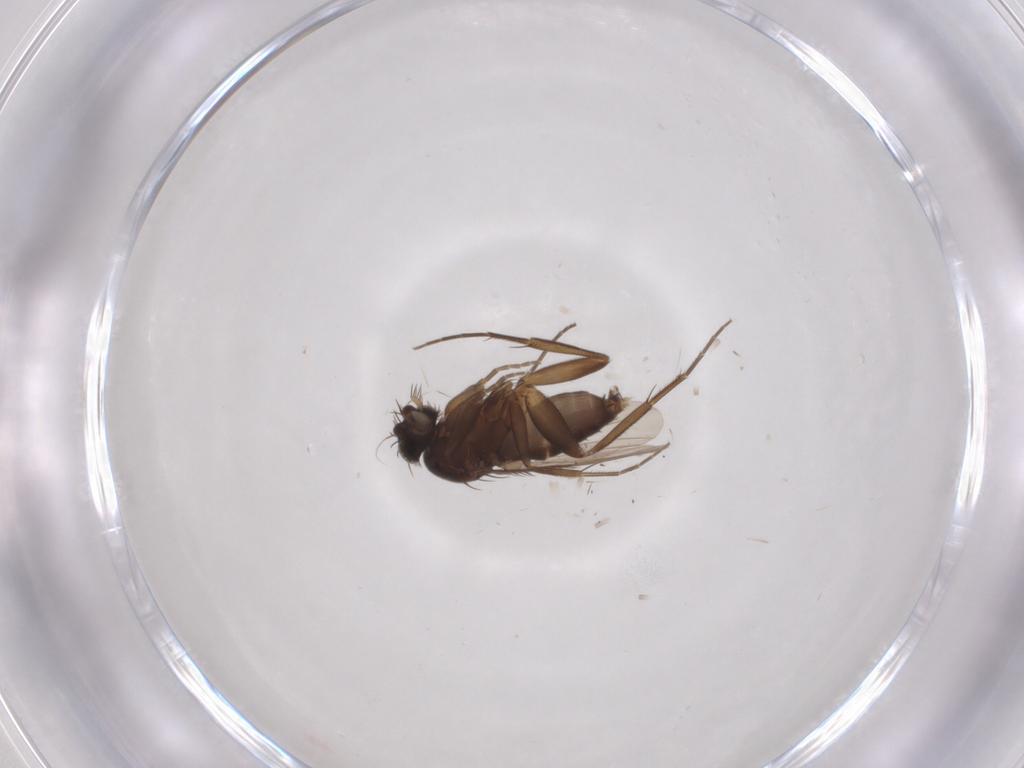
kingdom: Animalia
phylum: Arthropoda
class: Insecta
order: Diptera
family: Phoridae
